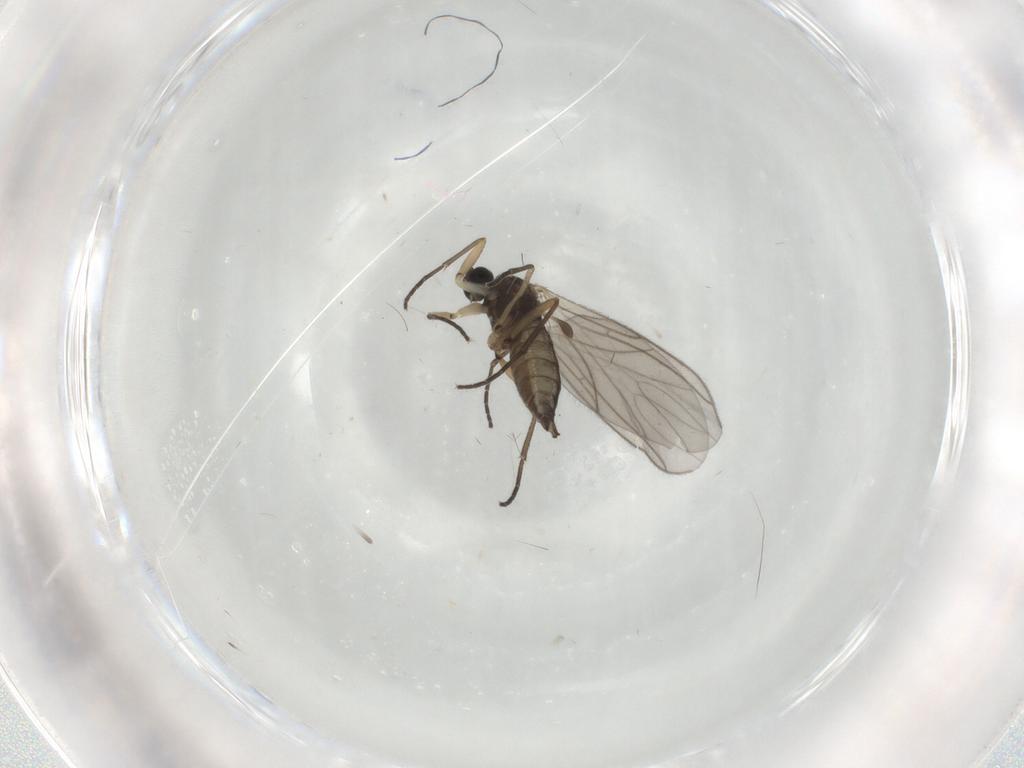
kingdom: Animalia
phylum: Arthropoda
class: Insecta
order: Diptera
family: Sciaridae
